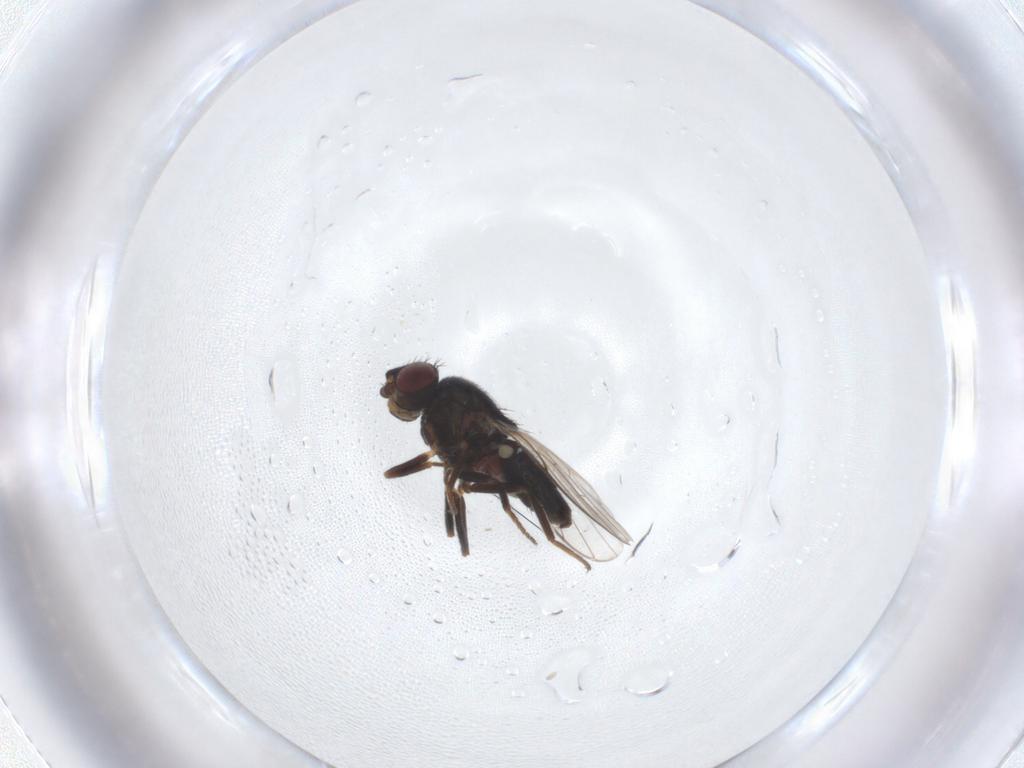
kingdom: Animalia
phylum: Arthropoda
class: Insecta
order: Diptera
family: Chloropidae
